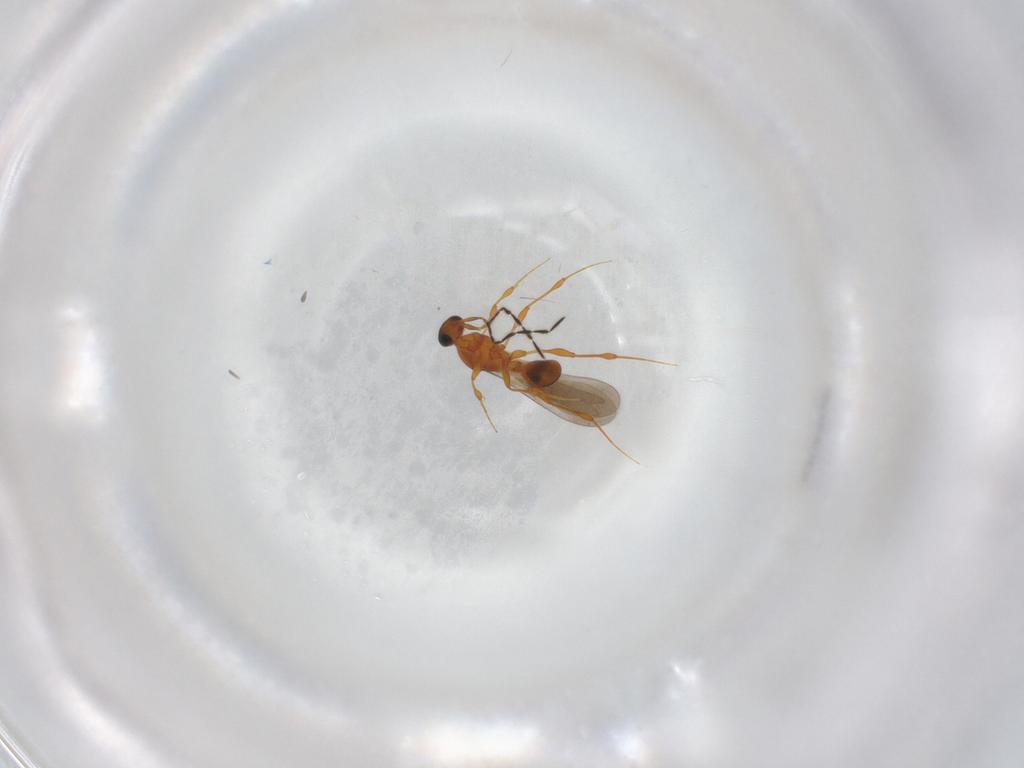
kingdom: Animalia
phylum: Arthropoda
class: Insecta
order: Hymenoptera
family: Platygastridae
